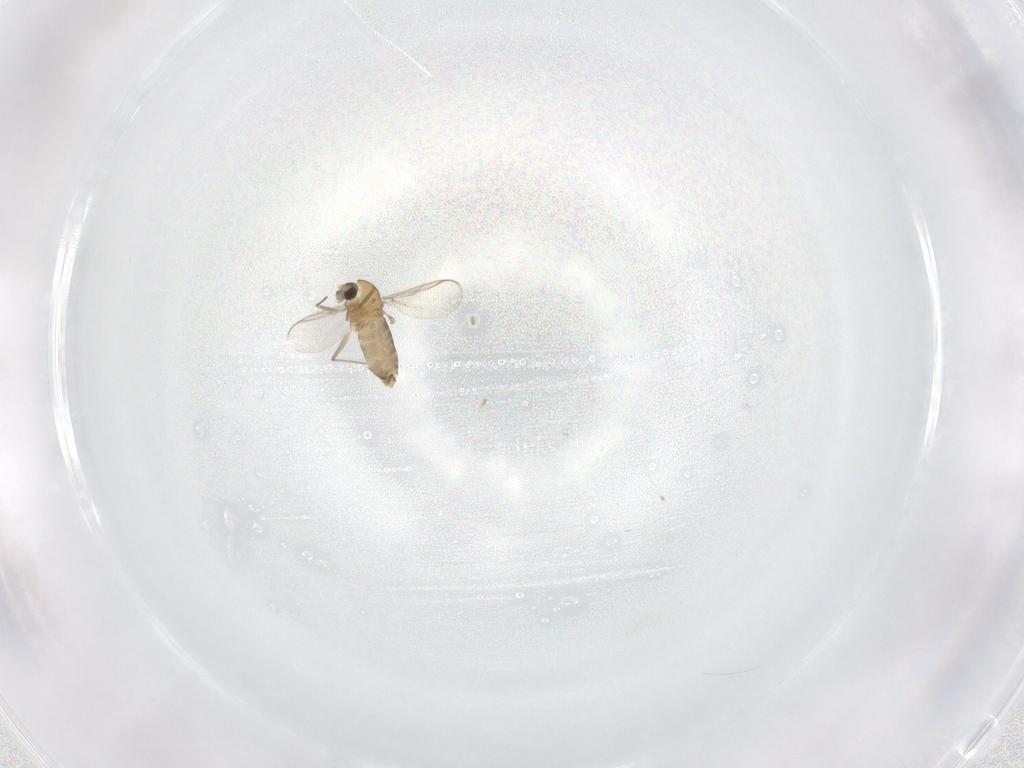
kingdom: Animalia
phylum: Arthropoda
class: Insecta
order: Diptera
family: Chironomidae
